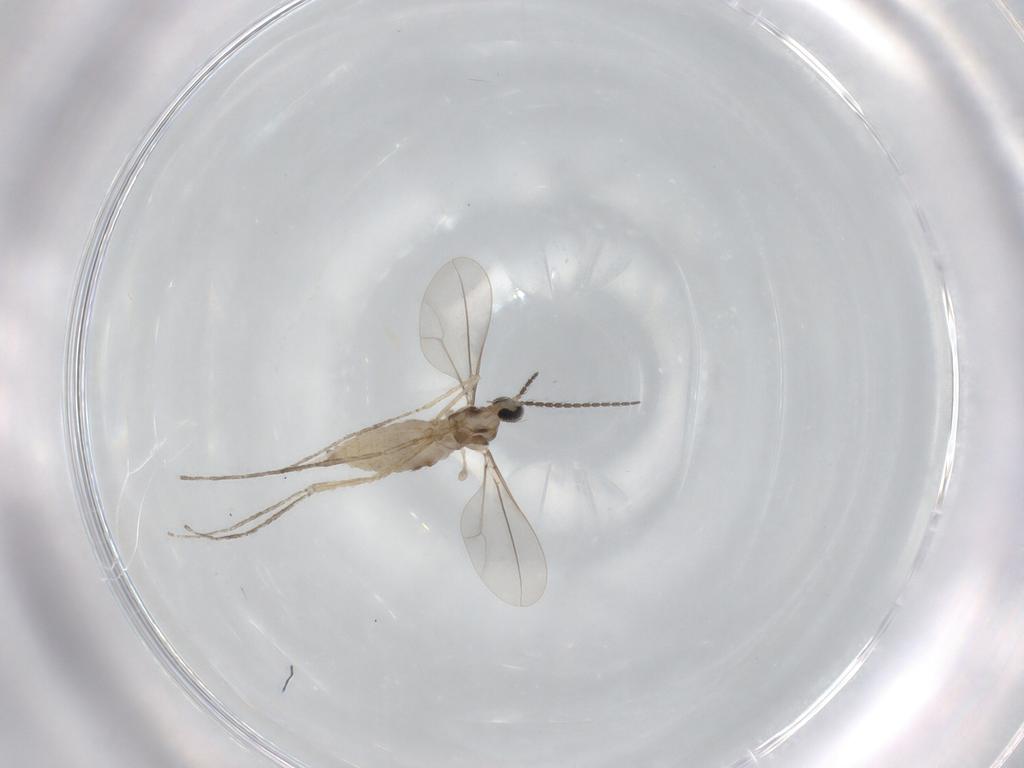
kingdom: Animalia
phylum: Arthropoda
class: Insecta
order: Diptera
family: Cecidomyiidae
